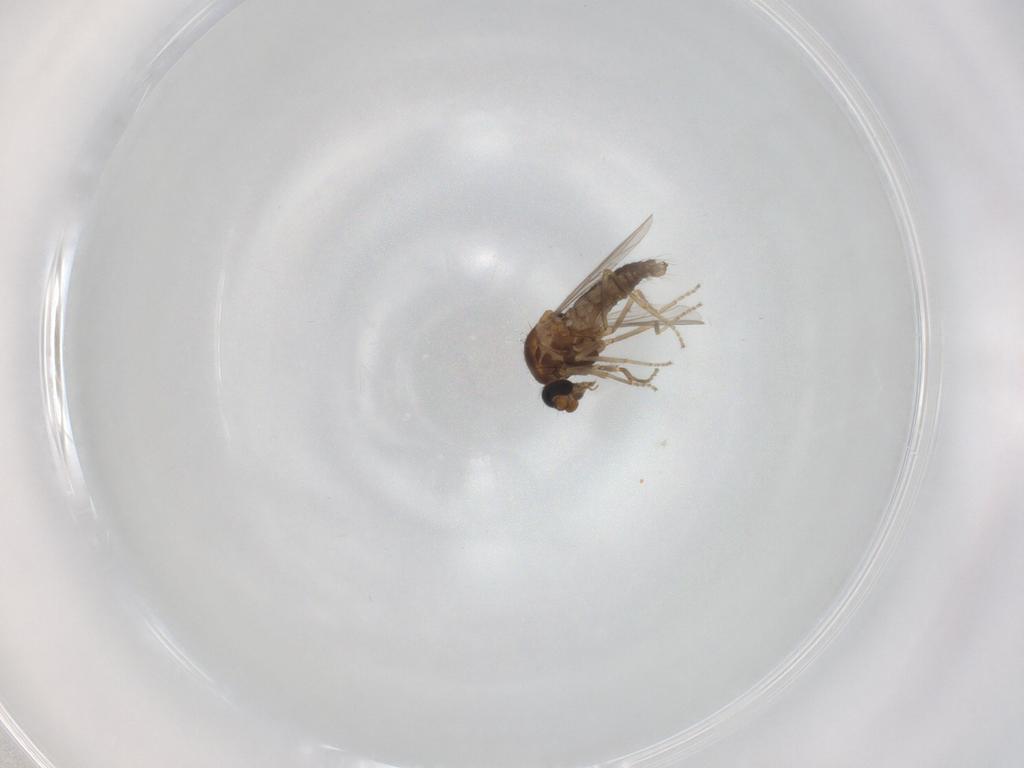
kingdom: Animalia
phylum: Arthropoda
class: Insecta
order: Diptera
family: Ceratopogonidae
